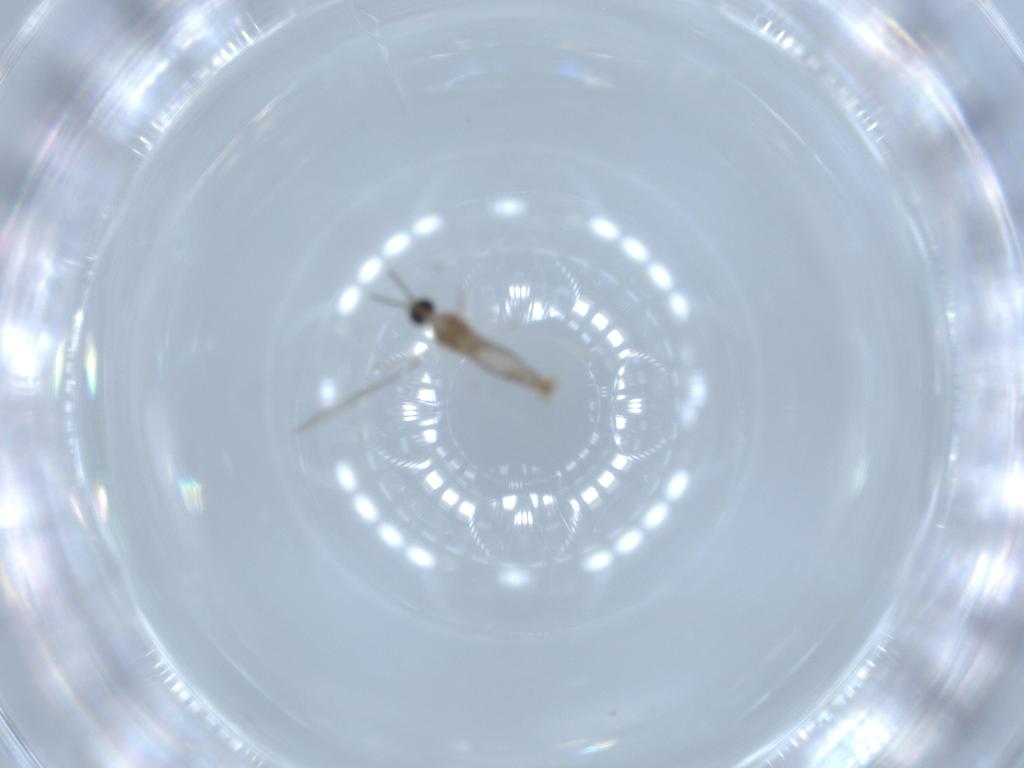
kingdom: Animalia
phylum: Arthropoda
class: Insecta
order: Diptera
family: Cecidomyiidae
